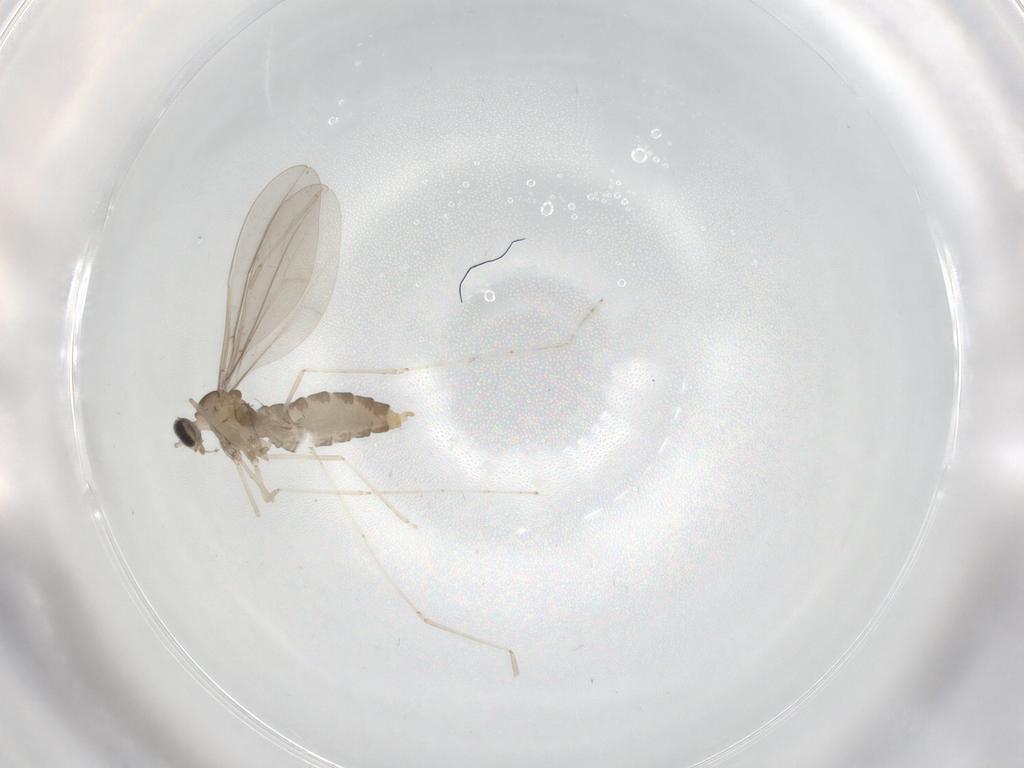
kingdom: Animalia
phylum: Arthropoda
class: Insecta
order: Diptera
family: Cecidomyiidae
